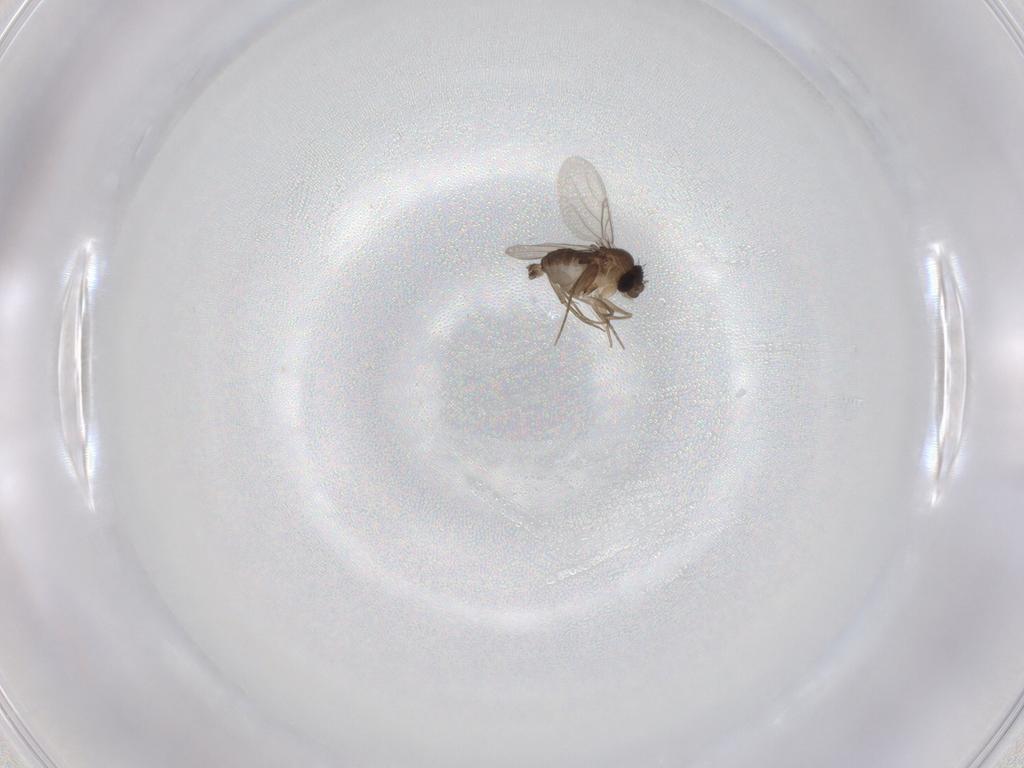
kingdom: Animalia
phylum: Arthropoda
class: Insecta
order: Diptera
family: Phoridae
